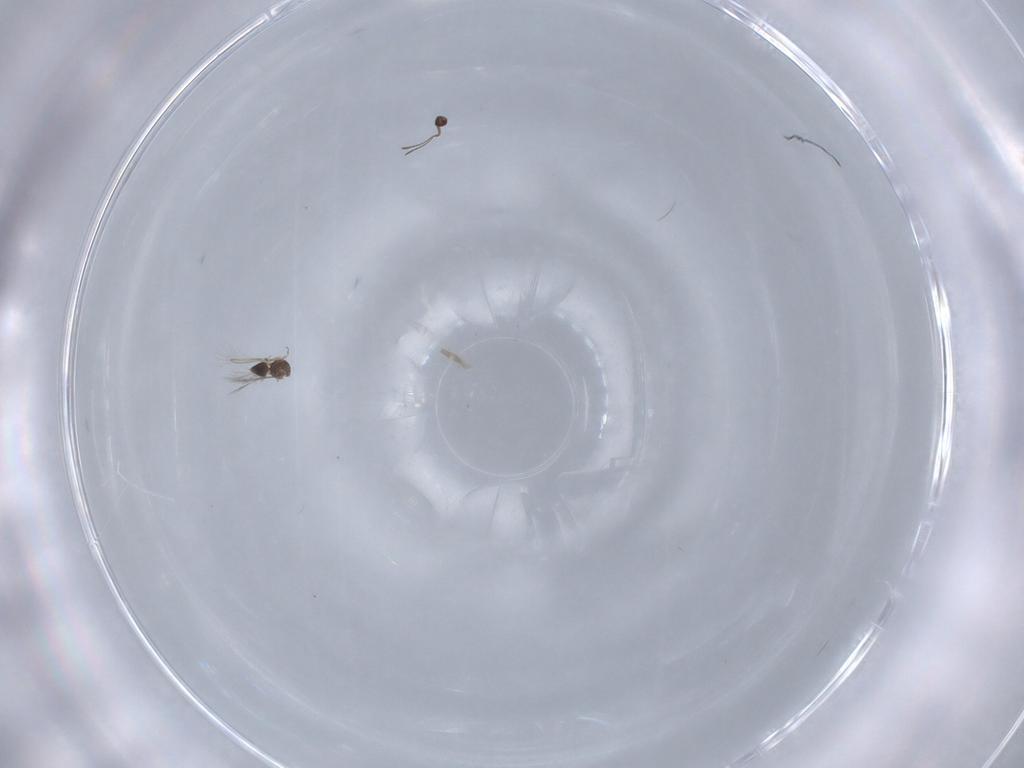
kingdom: Animalia
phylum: Arthropoda
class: Insecta
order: Hymenoptera
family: Mymaridae
